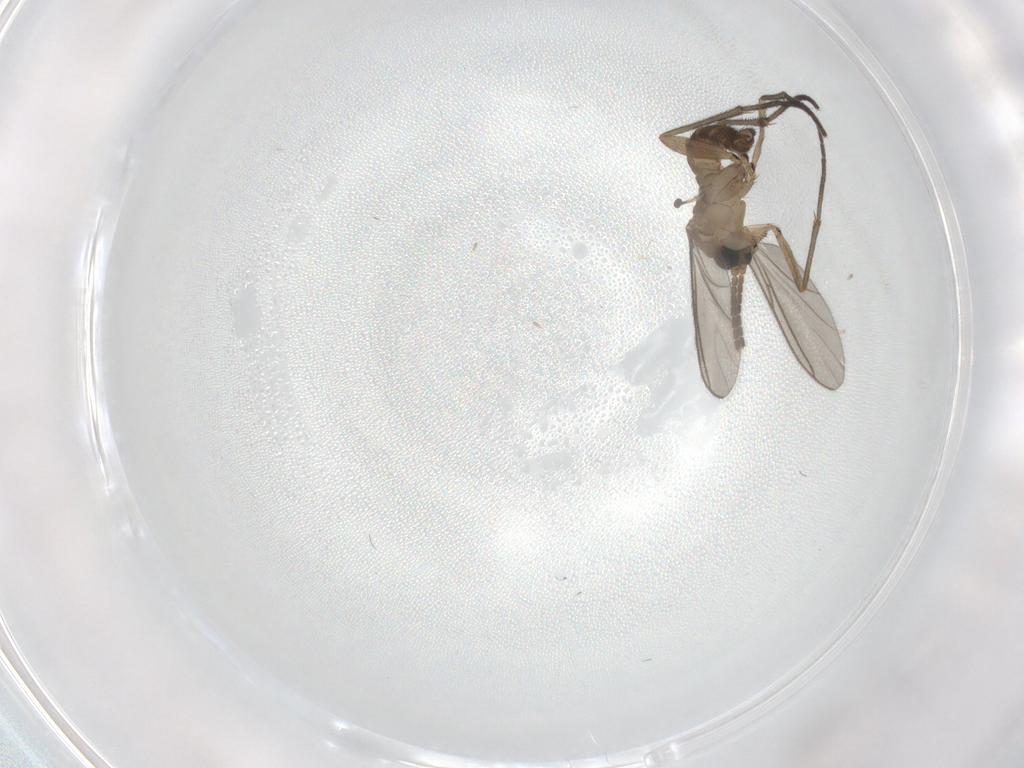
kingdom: Animalia
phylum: Arthropoda
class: Insecta
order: Diptera
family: Sciaridae
